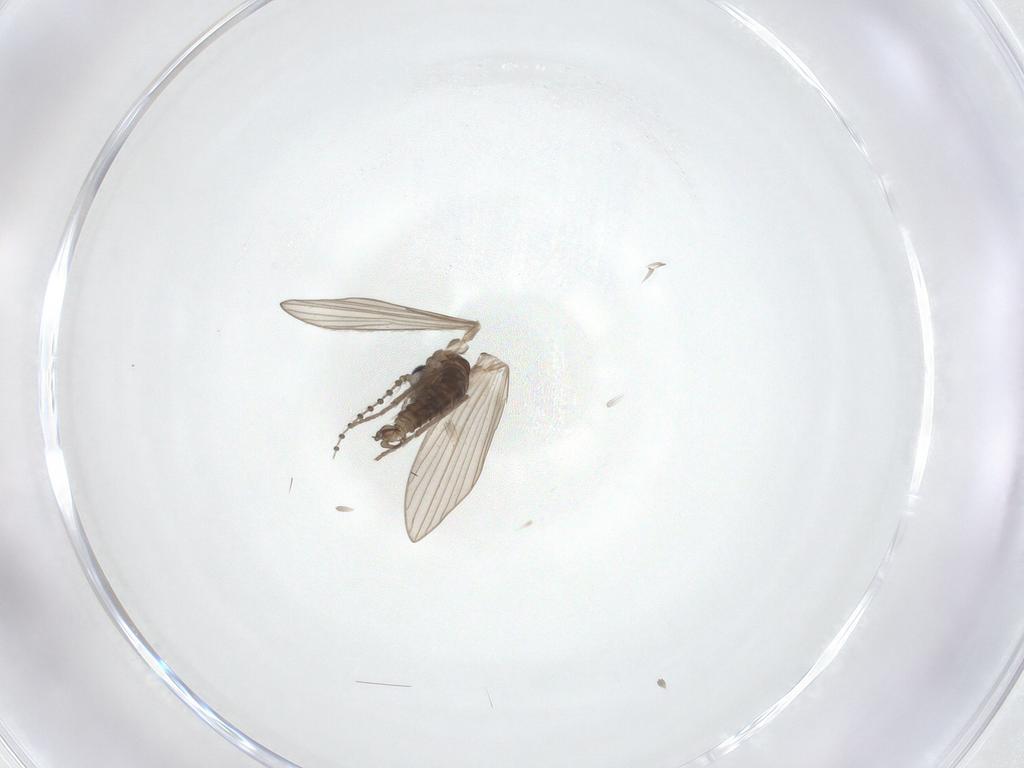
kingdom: Animalia
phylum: Arthropoda
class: Insecta
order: Diptera
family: Psychodidae
